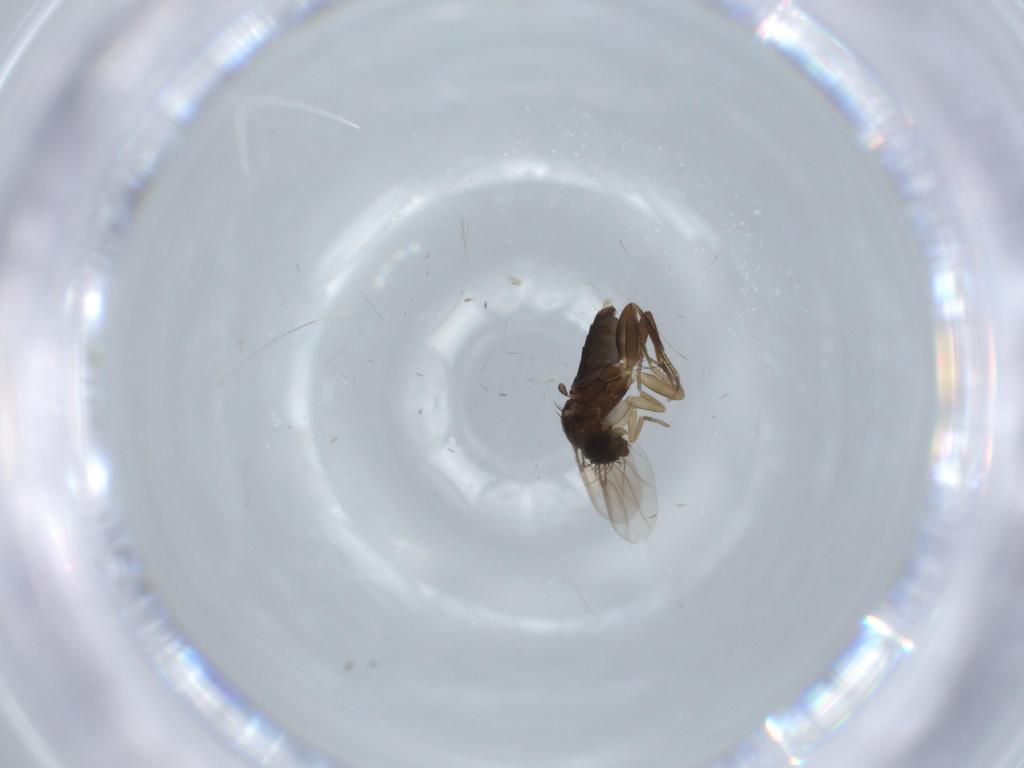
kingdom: Animalia
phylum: Arthropoda
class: Insecta
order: Diptera
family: Phoridae
